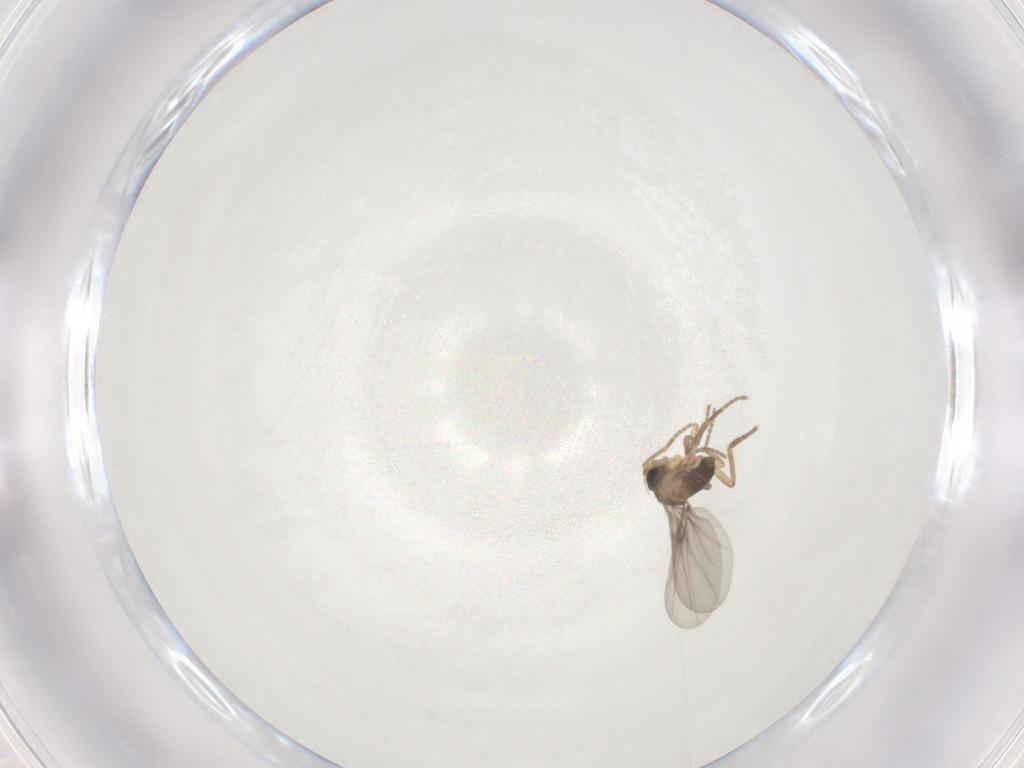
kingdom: Animalia
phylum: Arthropoda
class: Insecta
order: Diptera
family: Phoridae
